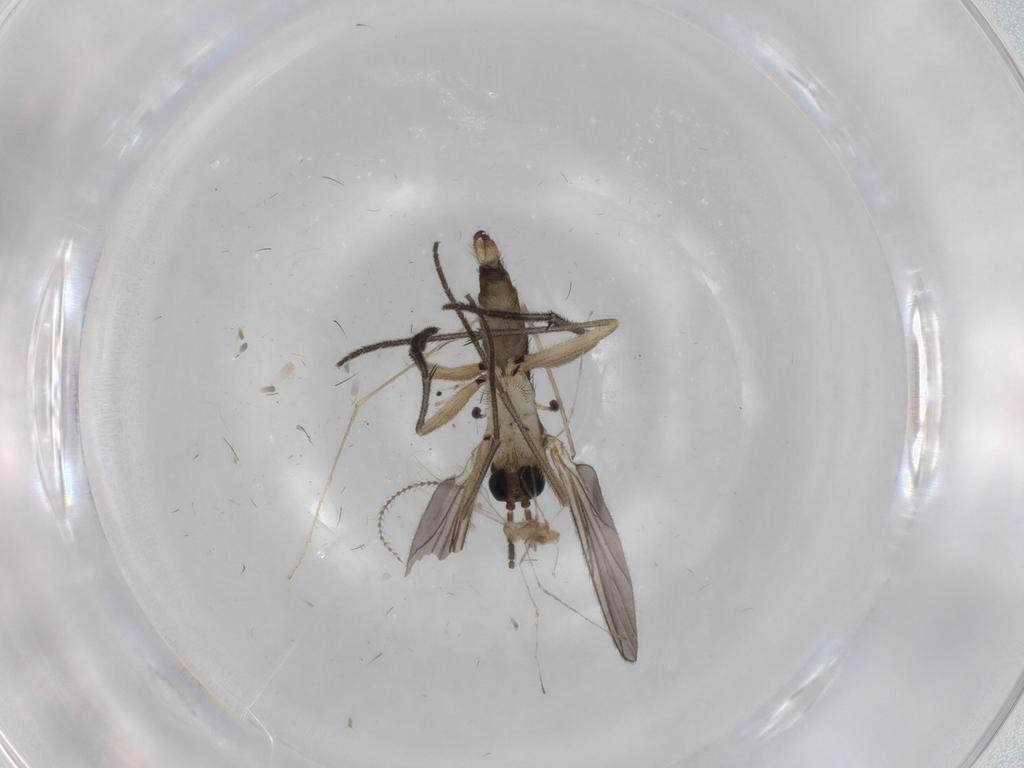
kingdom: Animalia
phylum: Arthropoda
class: Insecta
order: Diptera
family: Sciaridae
